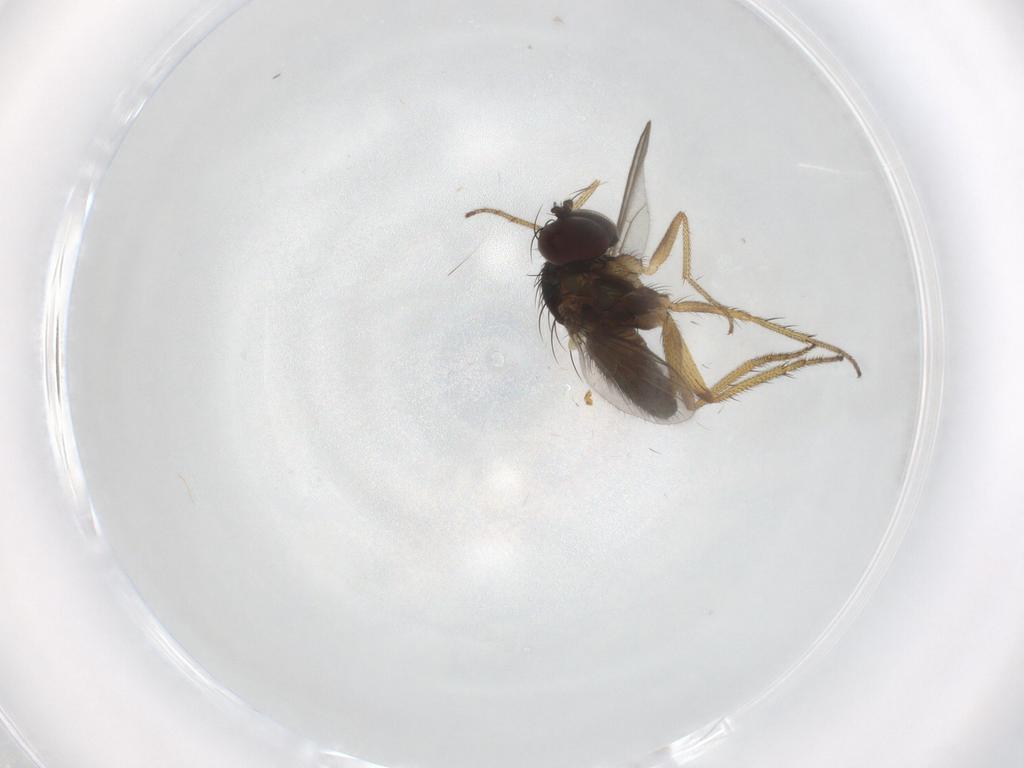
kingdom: Animalia
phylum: Arthropoda
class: Insecta
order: Diptera
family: Dolichopodidae
